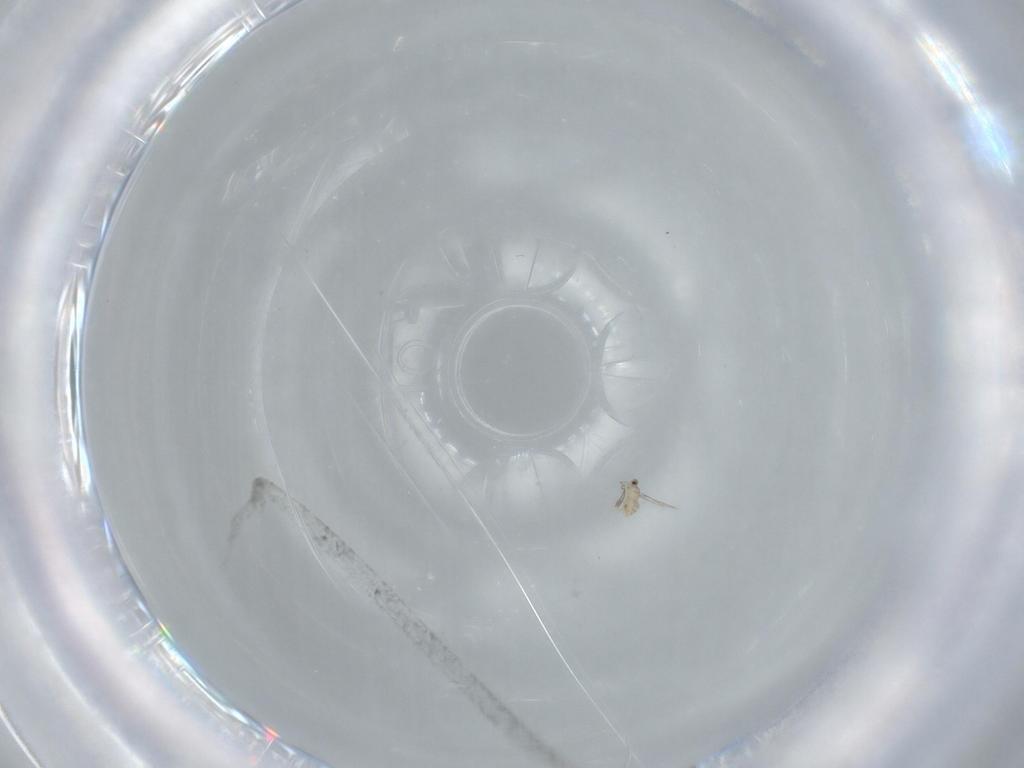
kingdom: Animalia
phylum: Arthropoda
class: Insecta
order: Hymenoptera
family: Mymaridae
